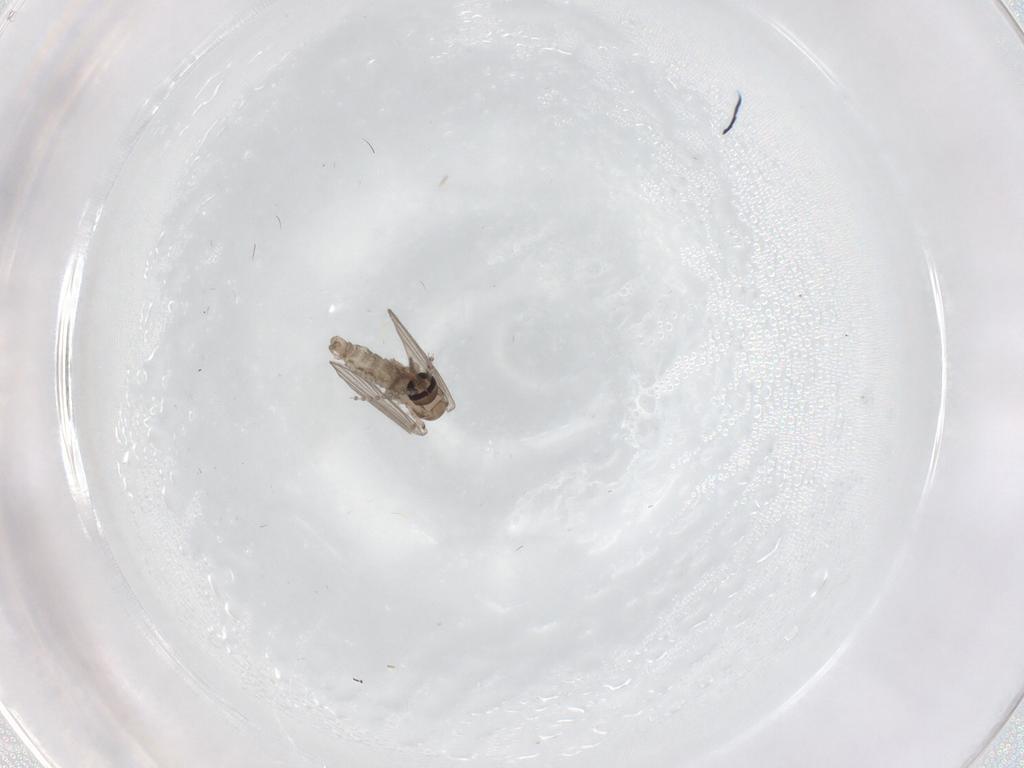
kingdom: Animalia
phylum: Arthropoda
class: Insecta
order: Diptera
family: Psychodidae
